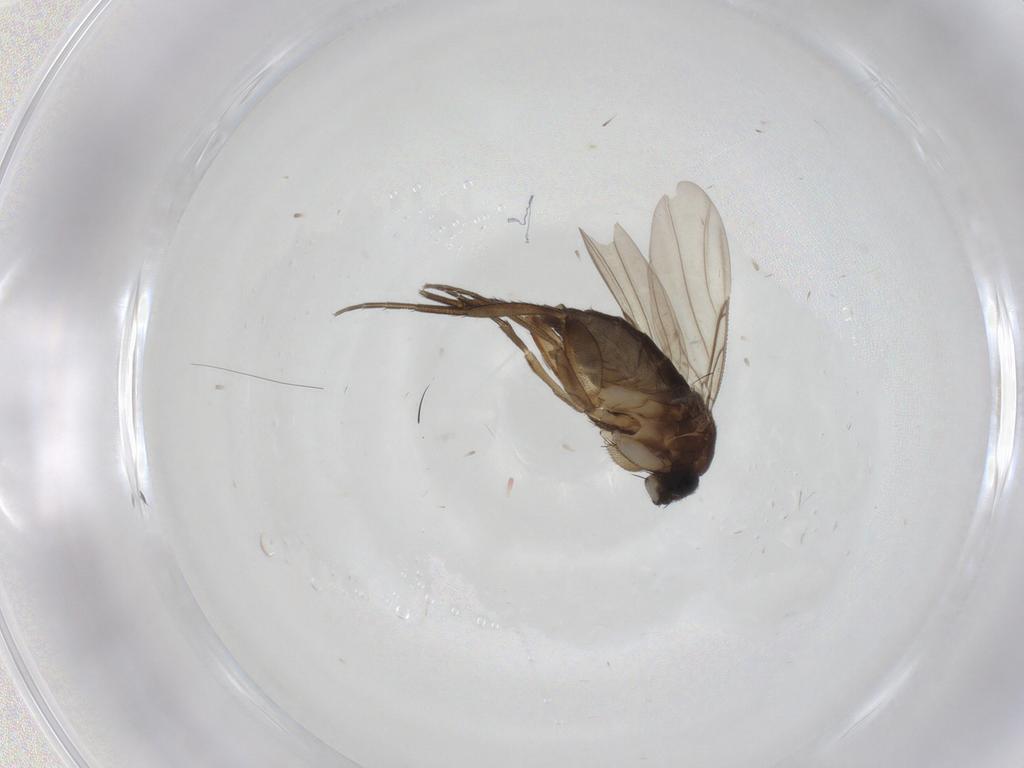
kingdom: Animalia
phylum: Arthropoda
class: Insecta
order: Diptera
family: Phoridae
